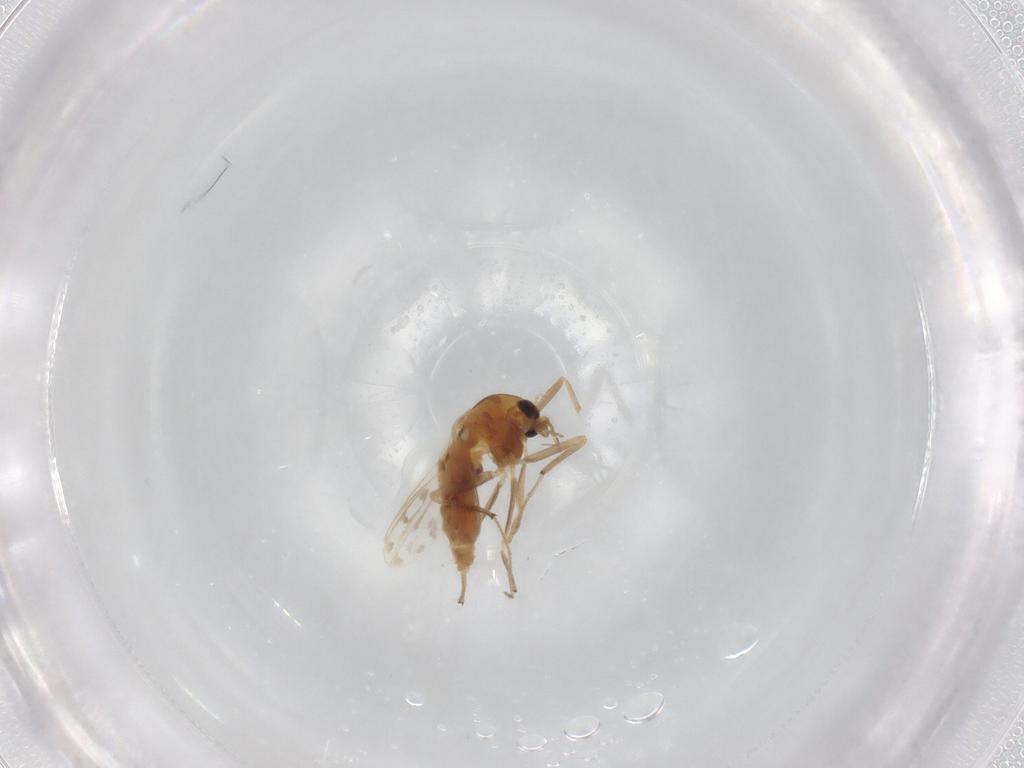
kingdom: Animalia
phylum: Arthropoda
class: Insecta
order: Diptera
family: Chironomidae
